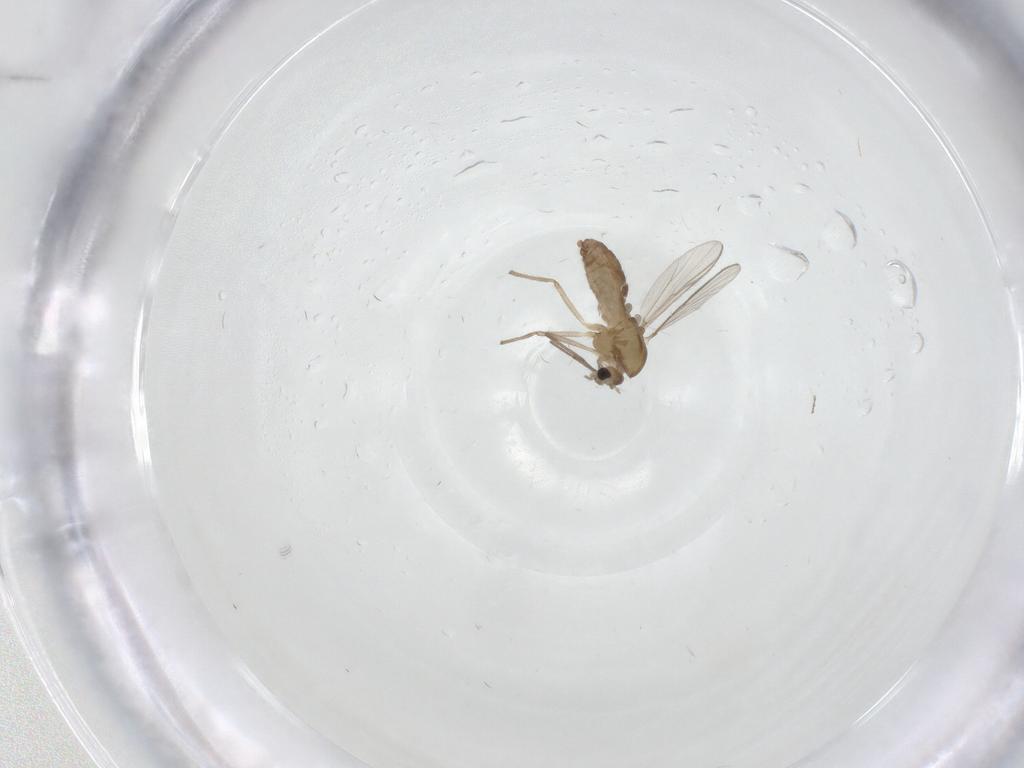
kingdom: Animalia
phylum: Arthropoda
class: Insecta
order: Diptera
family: Chironomidae
